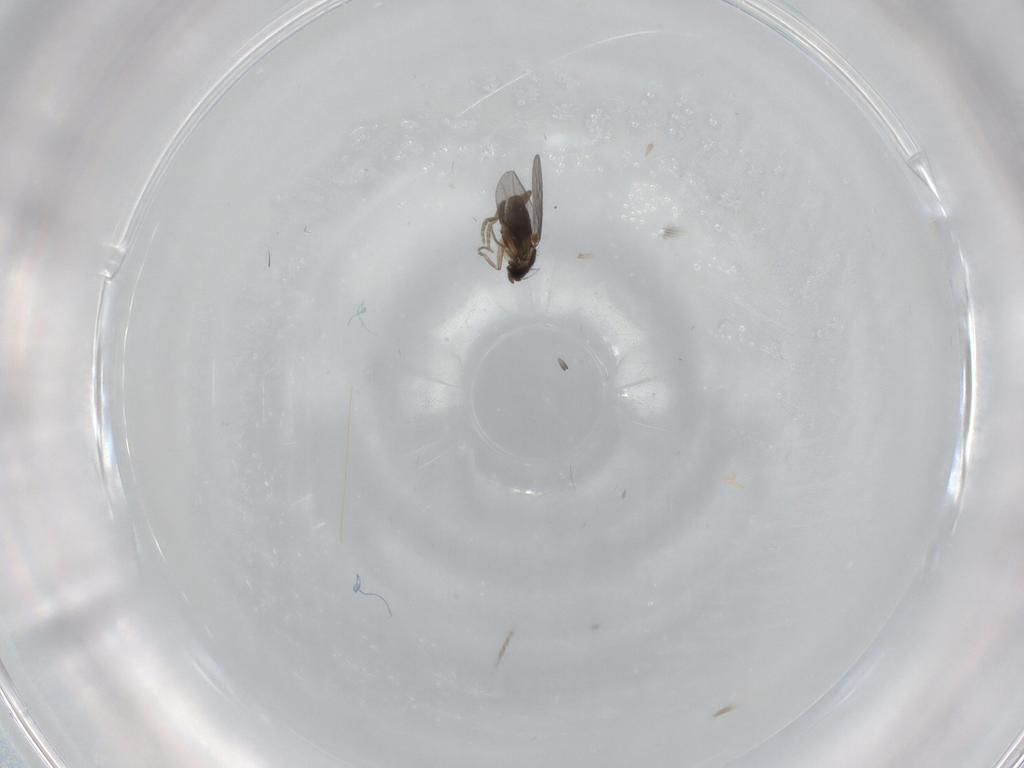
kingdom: Animalia
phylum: Arthropoda
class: Insecta
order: Diptera
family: Chironomidae
